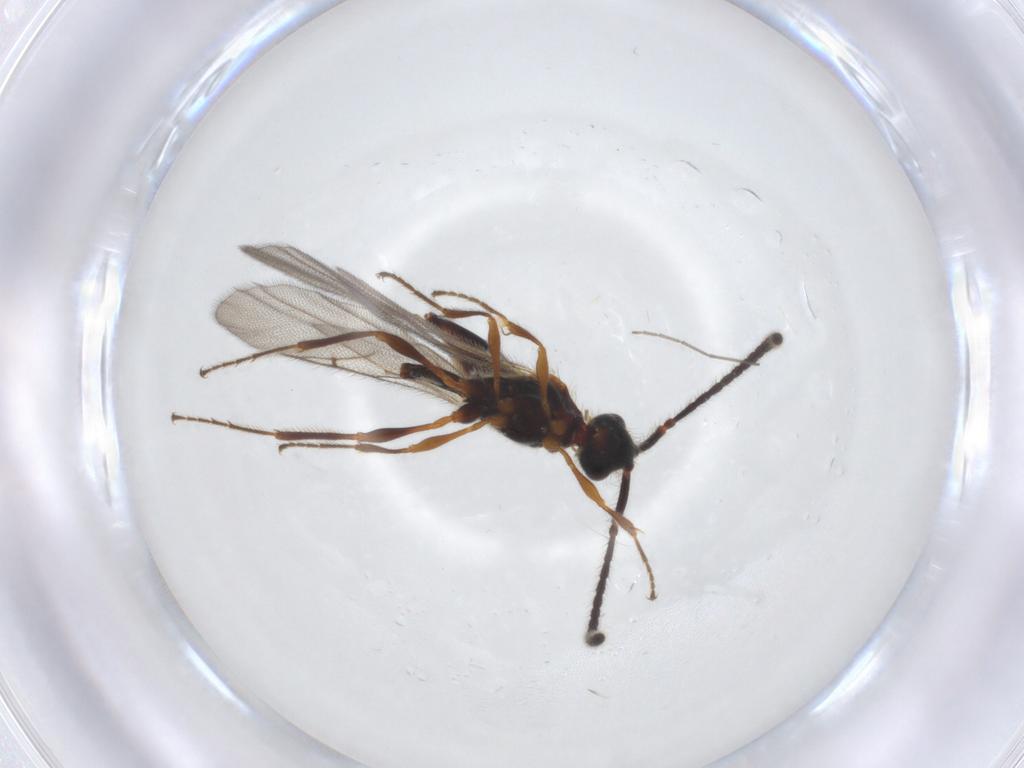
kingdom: Animalia
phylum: Arthropoda
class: Insecta
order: Hymenoptera
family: Diapriidae
